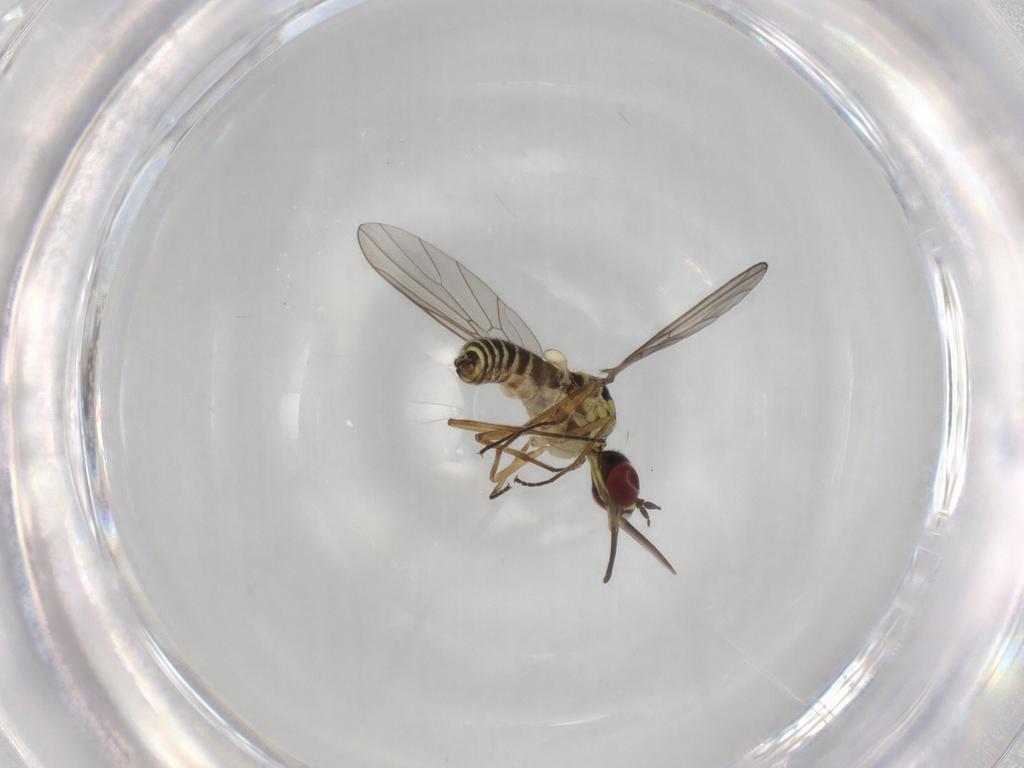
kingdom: Animalia
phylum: Arthropoda
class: Insecta
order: Diptera
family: Mythicomyiidae
